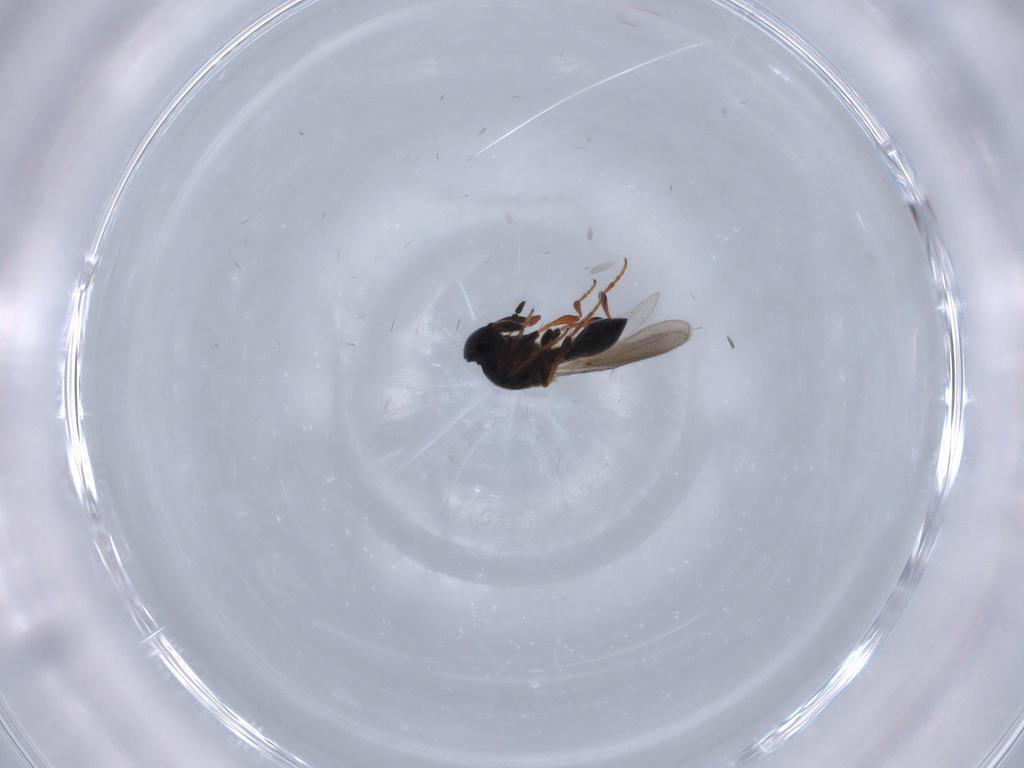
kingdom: Animalia
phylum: Arthropoda
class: Insecta
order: Hymenoptera
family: Platygastridae
